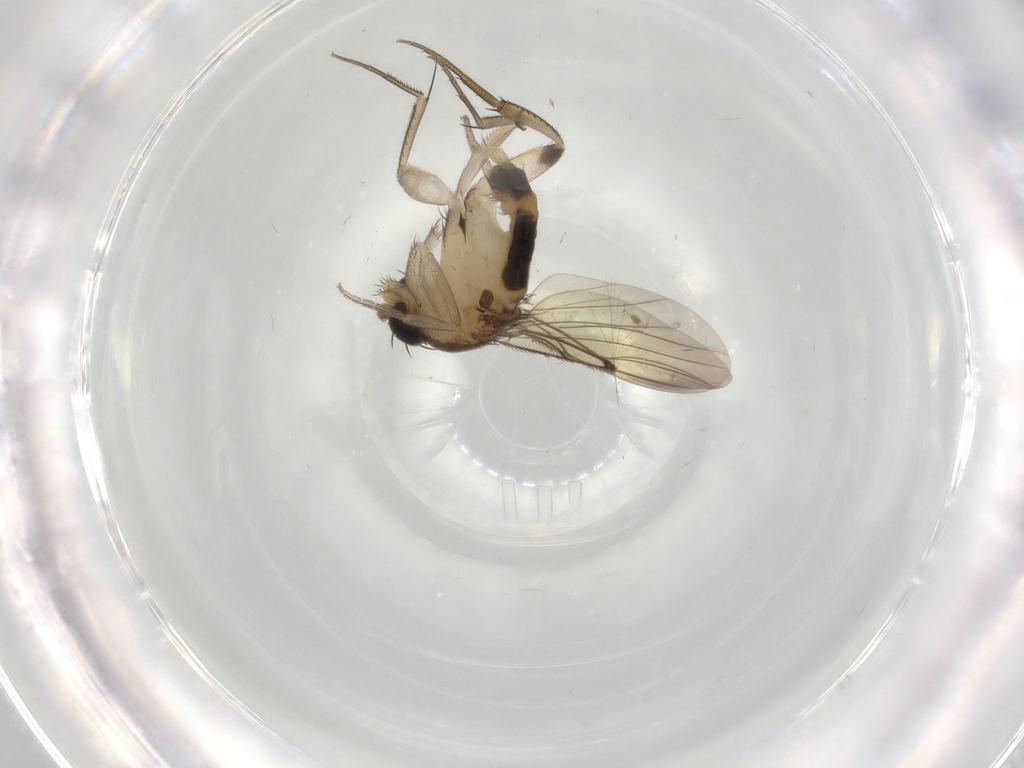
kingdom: Animalia
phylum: Arthropoda
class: Insecta
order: Diptera
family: Phoridae
